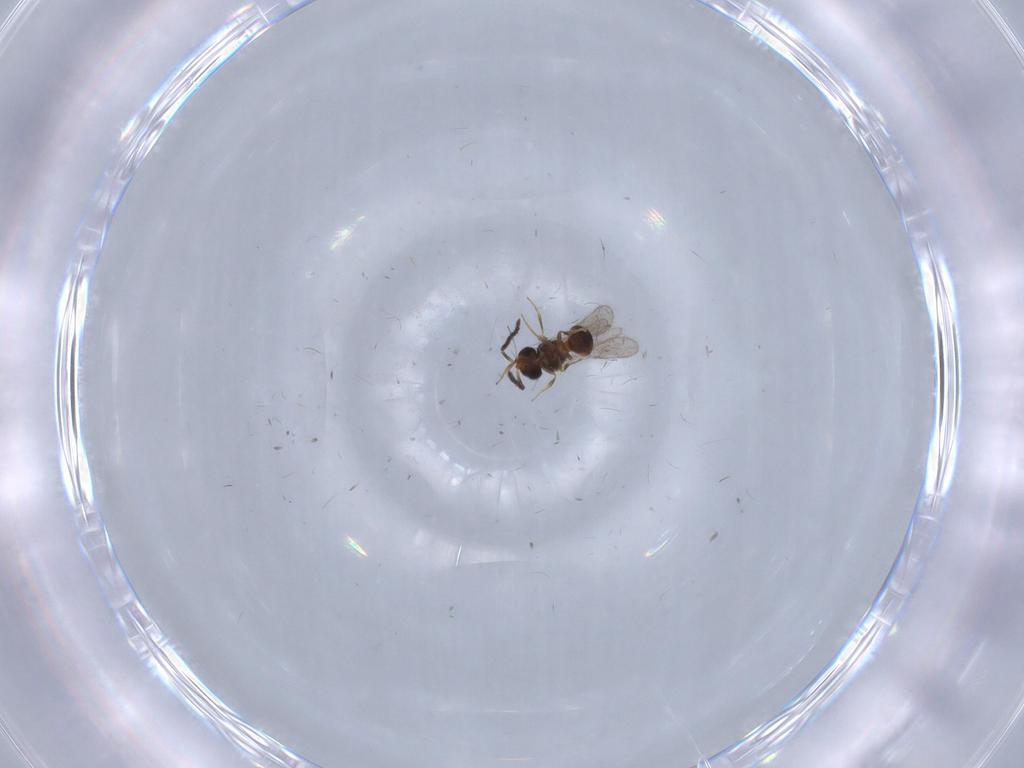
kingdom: Animalia
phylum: Arthropoda
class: Insecta
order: Hymenoptera
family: Scelionidae
